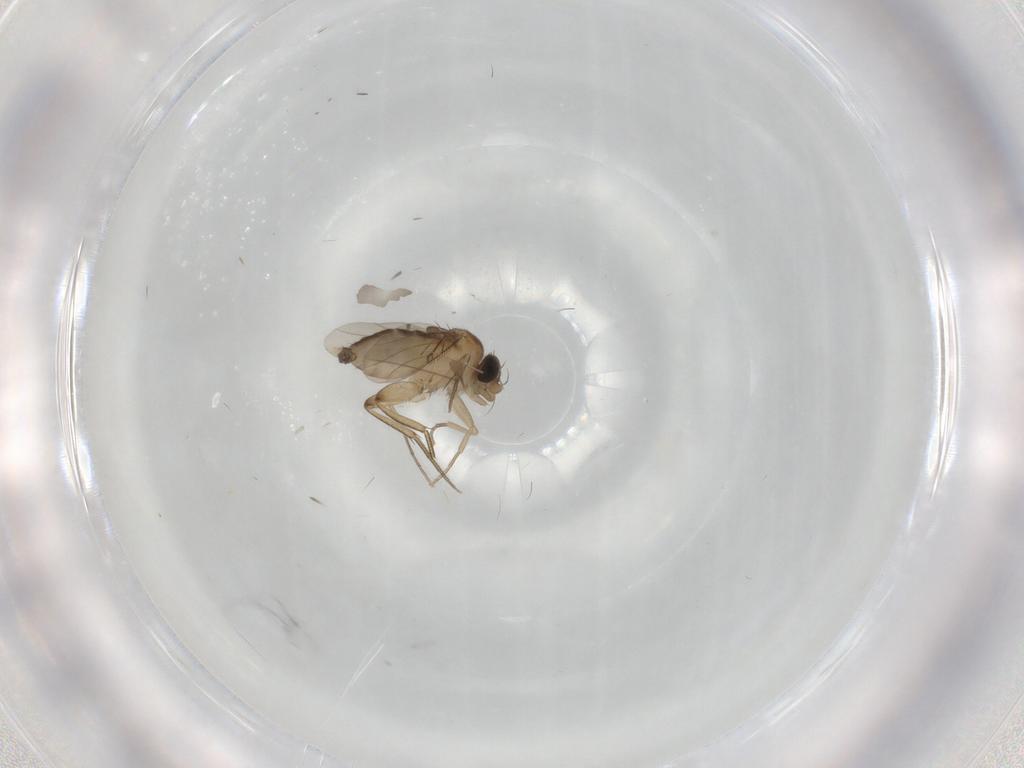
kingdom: Animalia
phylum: Arthropoda
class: Insecta
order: Diptera
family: Phoridae
